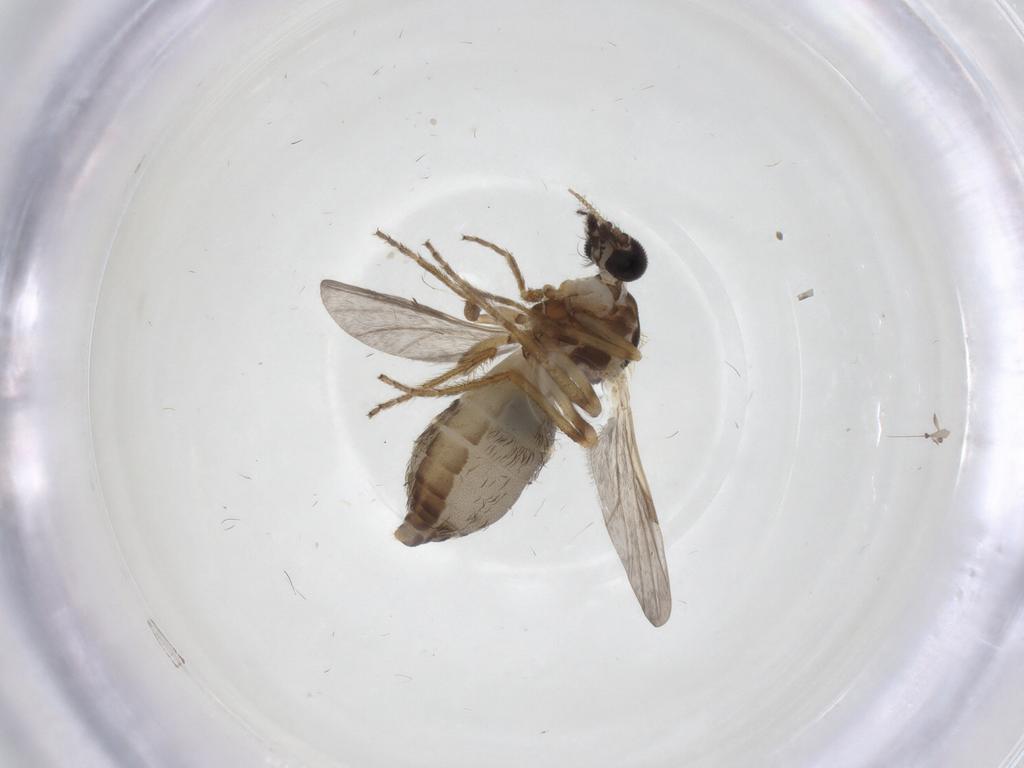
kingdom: Animalia
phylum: Arthropoda
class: Insecta
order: Diptera
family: Ceratopogonidae
